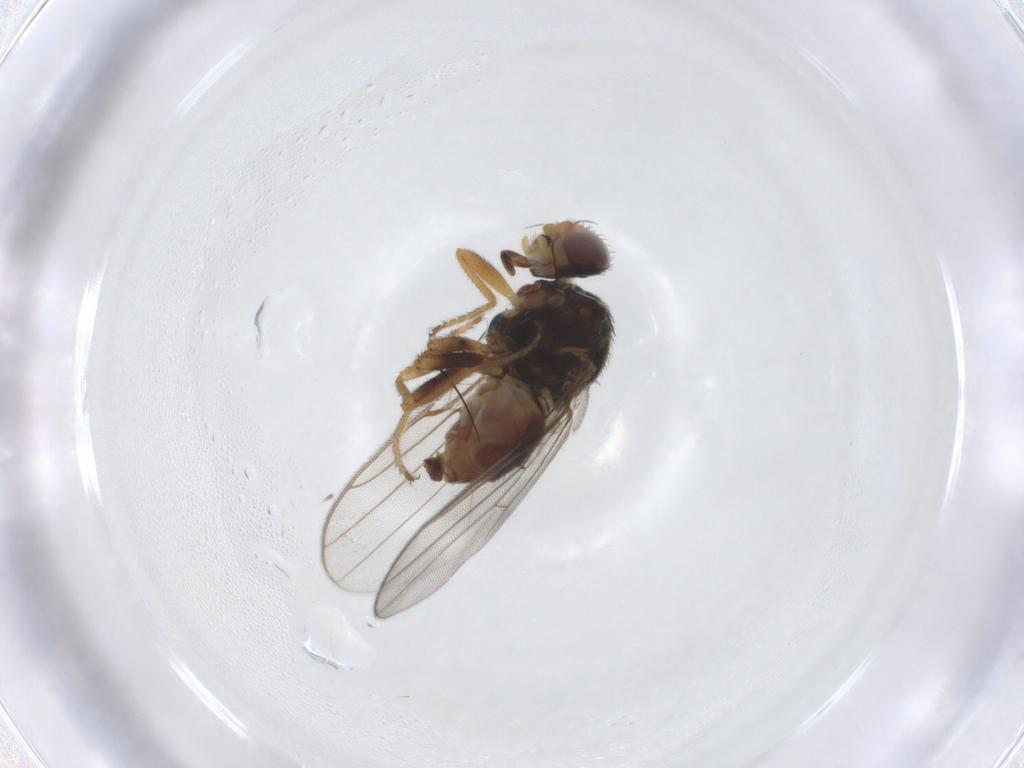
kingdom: Animalia
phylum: Arthropoda
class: Insecta
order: Diptera
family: Chloropidae
